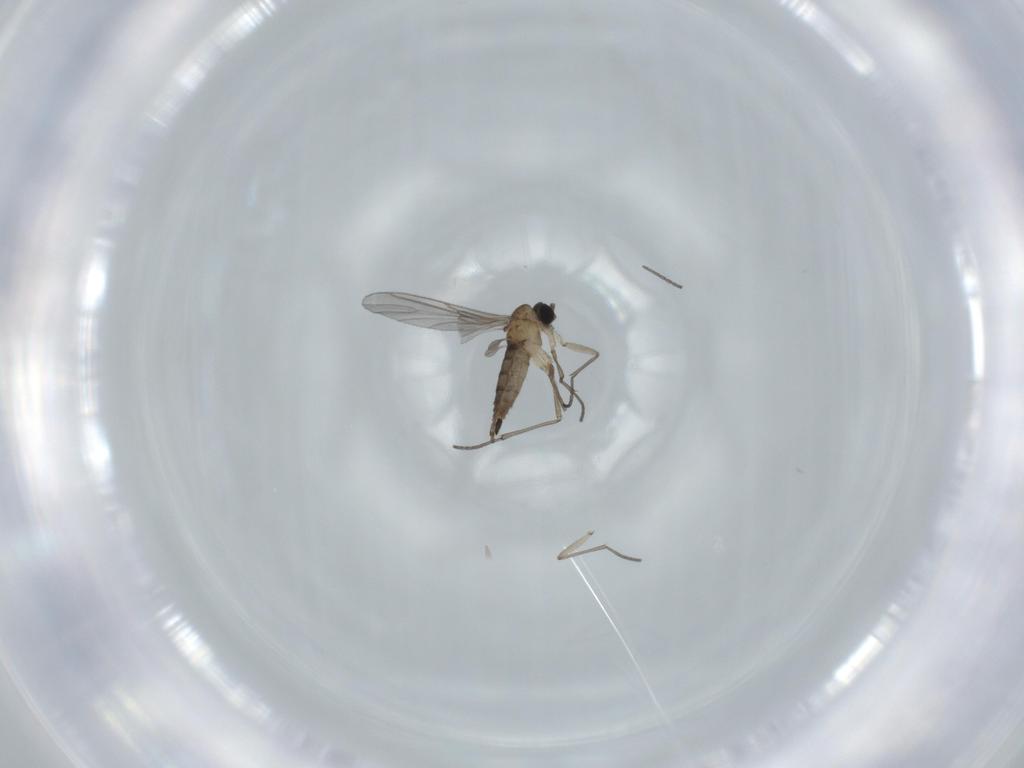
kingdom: Animalia
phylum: Arthropoda
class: Insecta
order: Diptera
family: Sciaridae
